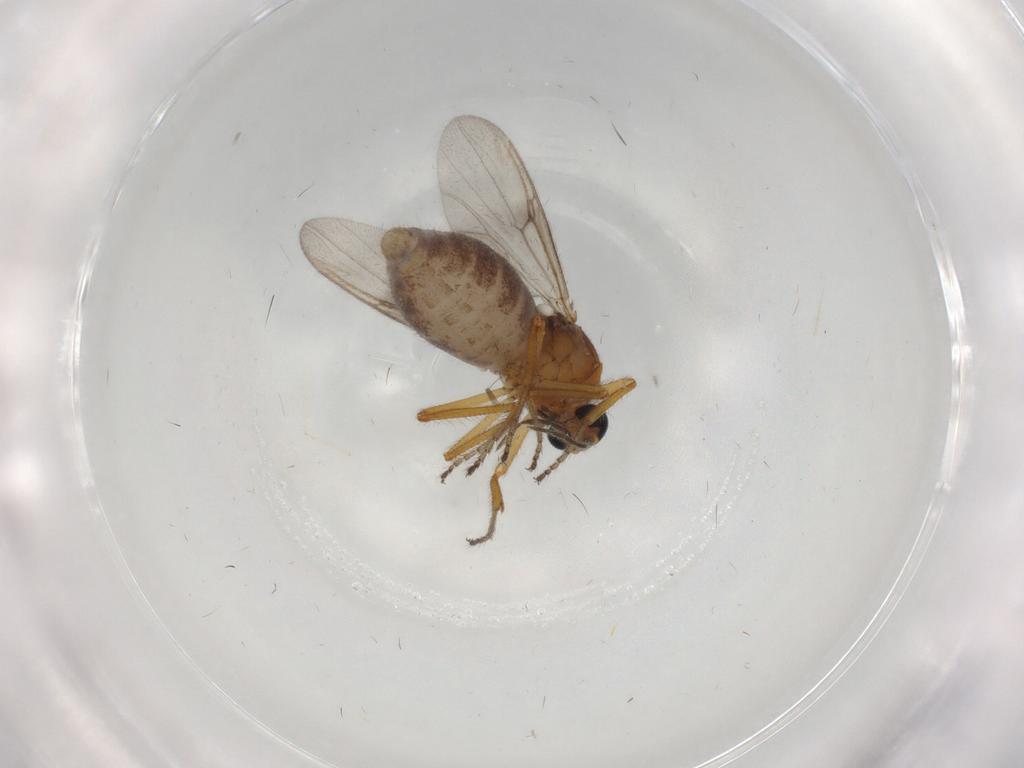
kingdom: Animalia
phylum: Arthropoda
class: Insecta
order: Diptera
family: Ceratopogonidae
